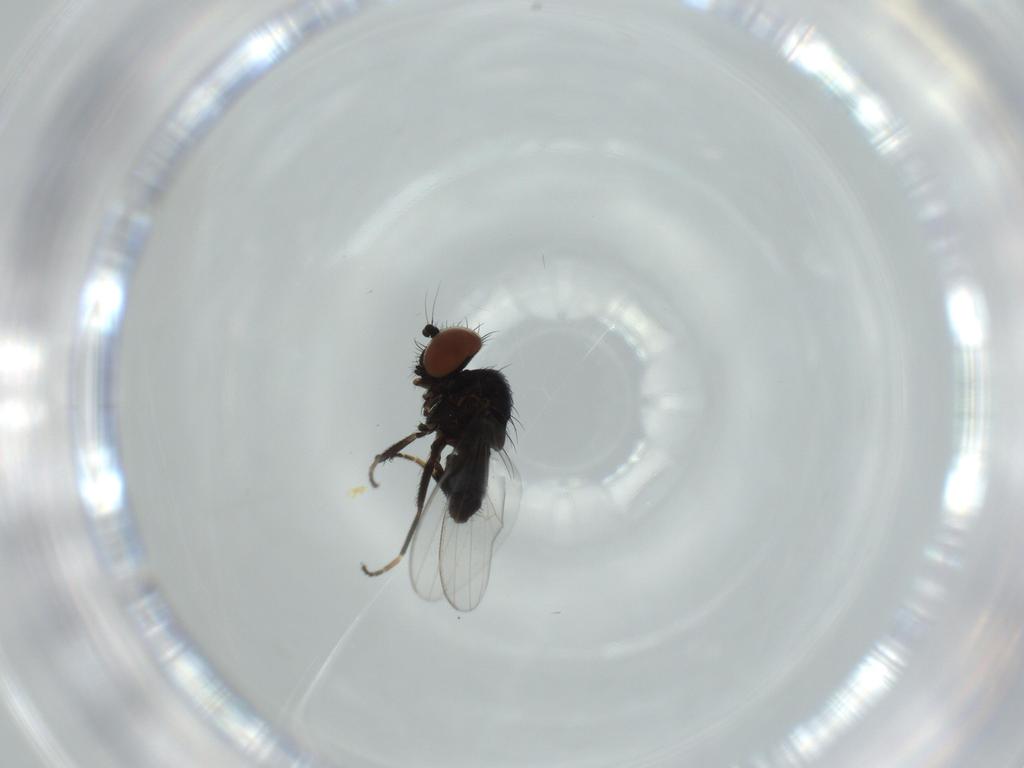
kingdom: Animalia
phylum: Arthropoda
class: Insecta
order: Diptera
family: Milichiidae
